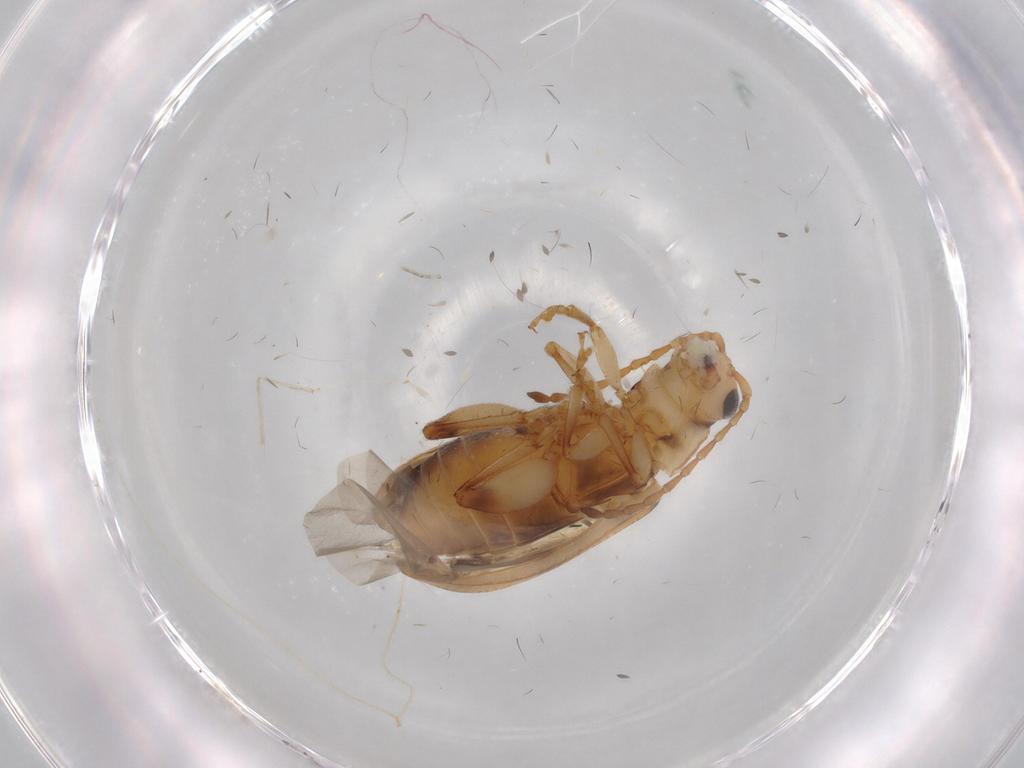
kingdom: Animalia
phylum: Arthropoda
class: Insecta
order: Coleoptera
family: Chrysomelidae
